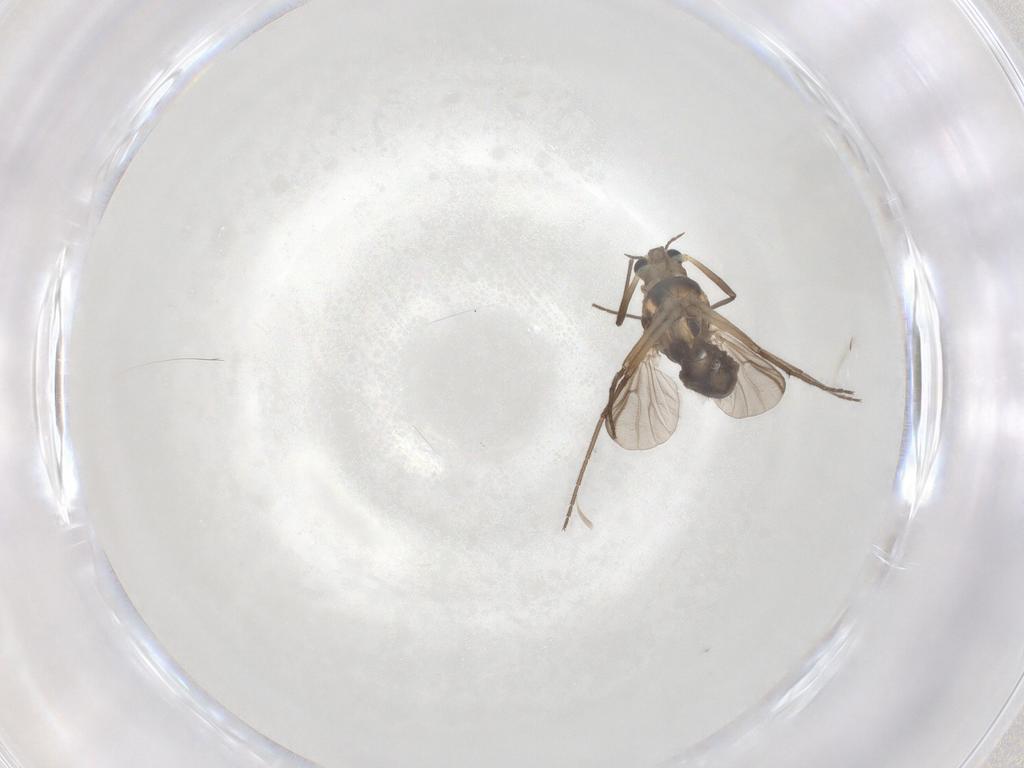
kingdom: Animalia
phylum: Arthropoda
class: Insecta
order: Diptera
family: Chironomidae
